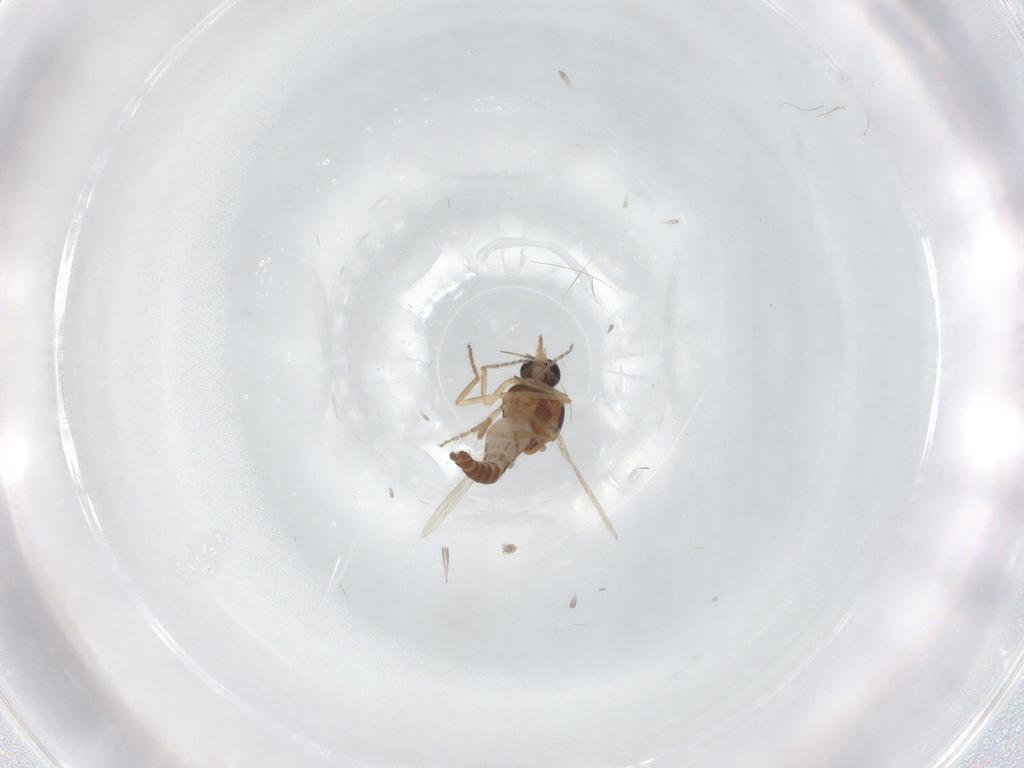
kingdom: Animalia
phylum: Arthropoda
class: Insecta
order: Diptera
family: Ceratopogonidae
